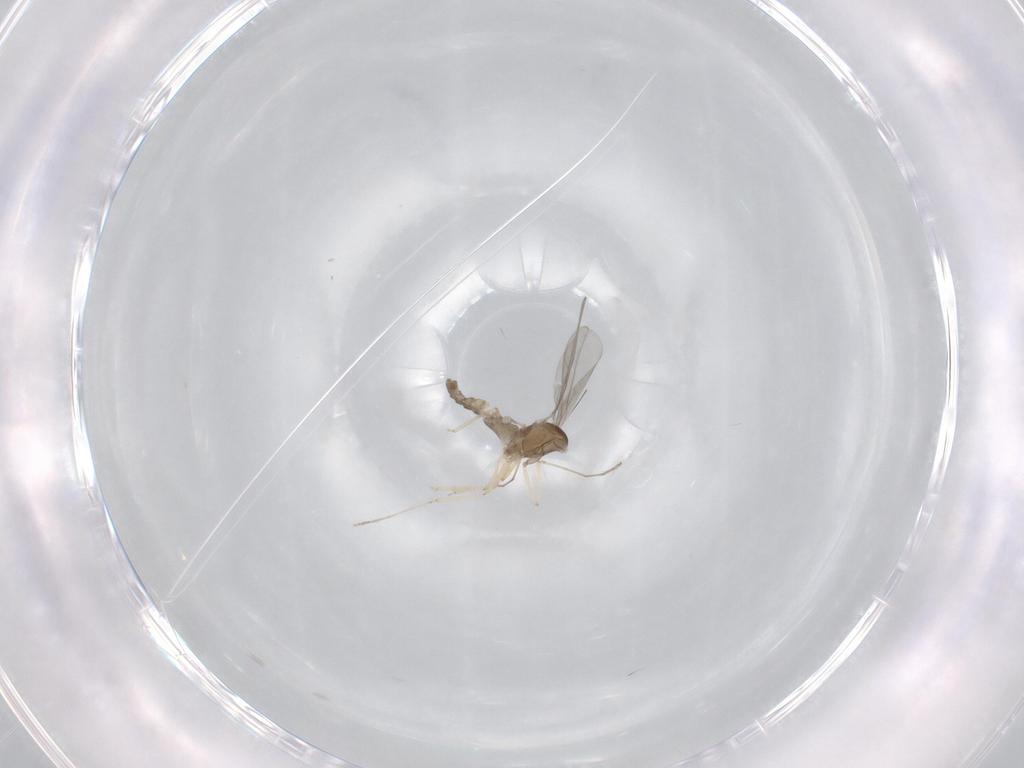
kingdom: Animalia
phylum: Arthropoda
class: Insecta
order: Diptera
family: Cecidomyiidae
